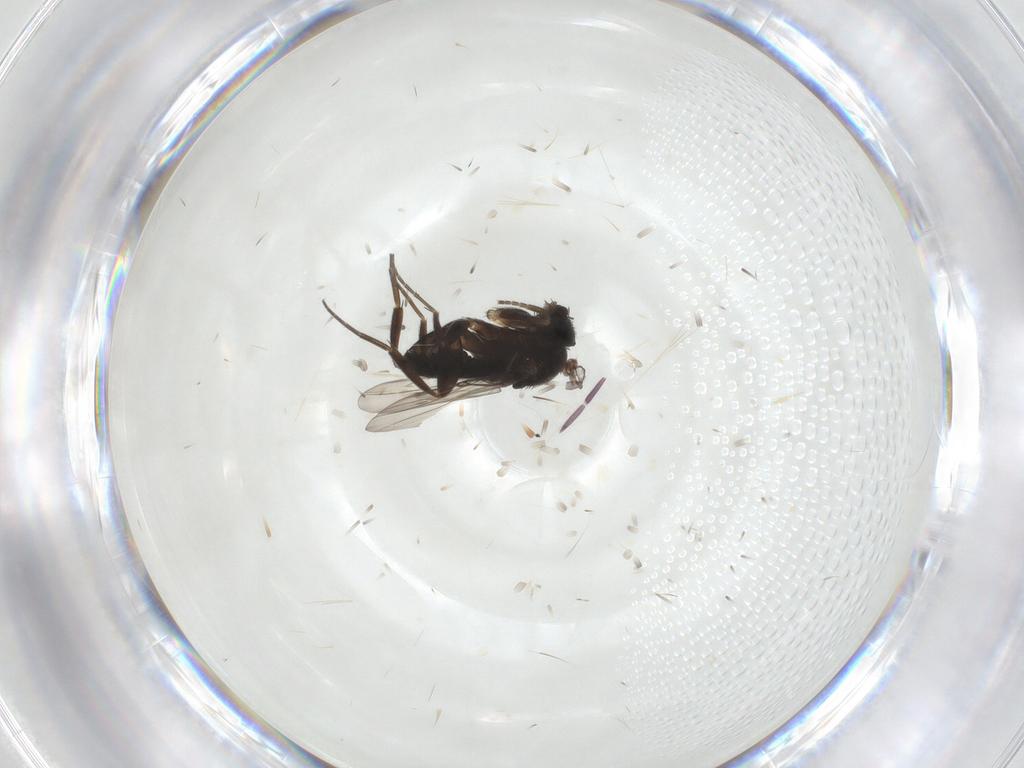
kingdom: Animalia
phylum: Arthropoda
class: Insecta
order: Diptera
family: Phoridae
